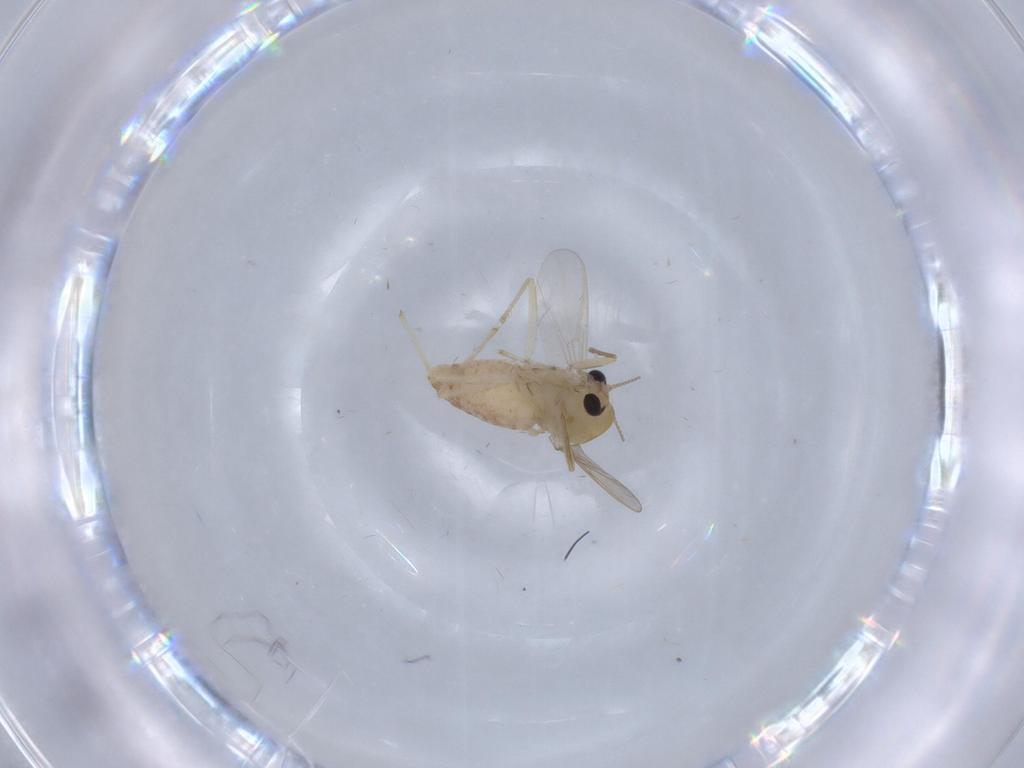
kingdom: Animalia
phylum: Arthropoda
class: Insecta
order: Diptera
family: Chironomidae
